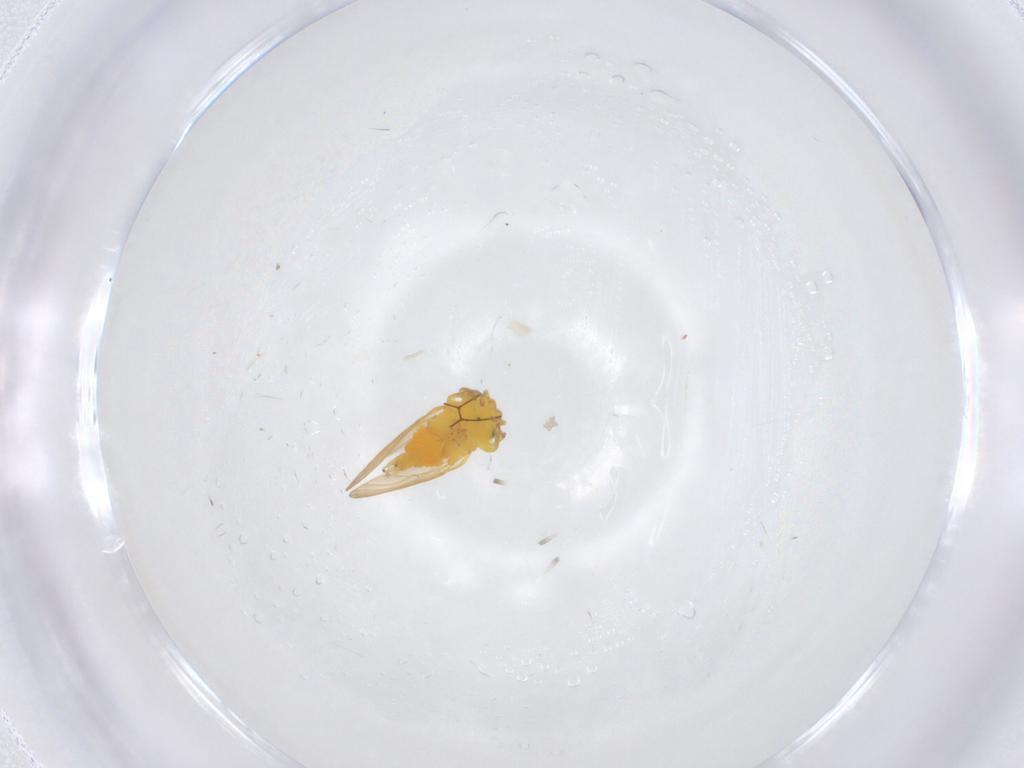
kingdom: Animalia
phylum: Arthropoda
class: Insecta
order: Hemiptera
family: Aphalaridae
